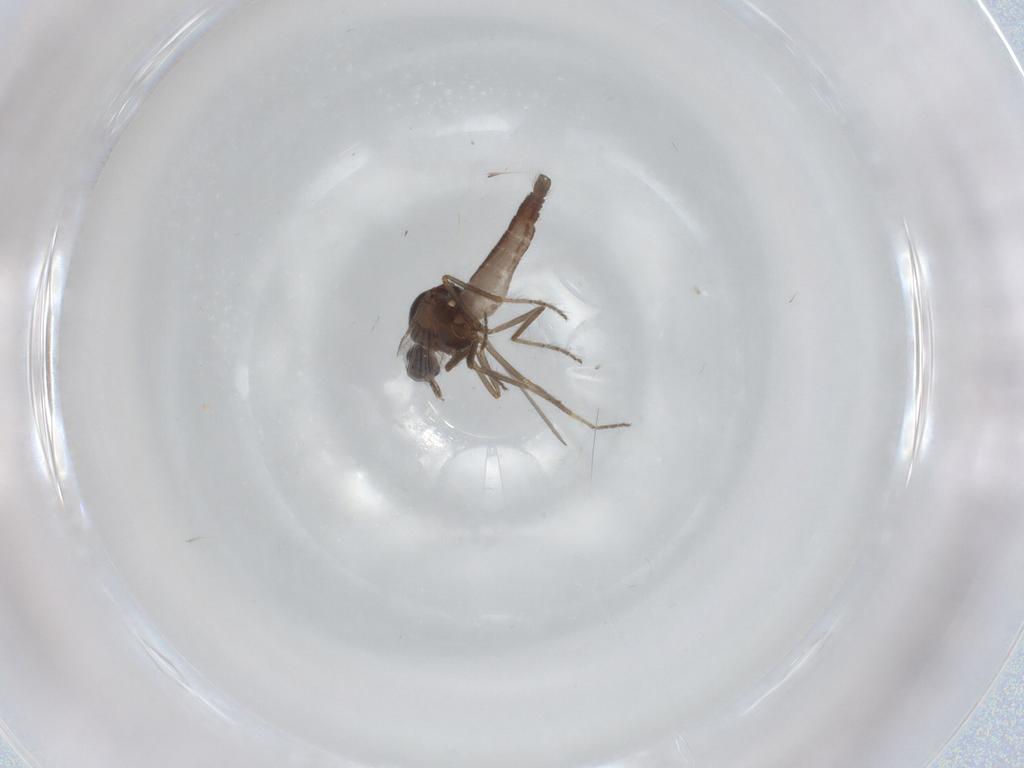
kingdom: Animalia
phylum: Arthropoda
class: Insecta
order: Diptera
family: Ceratopogonidae
